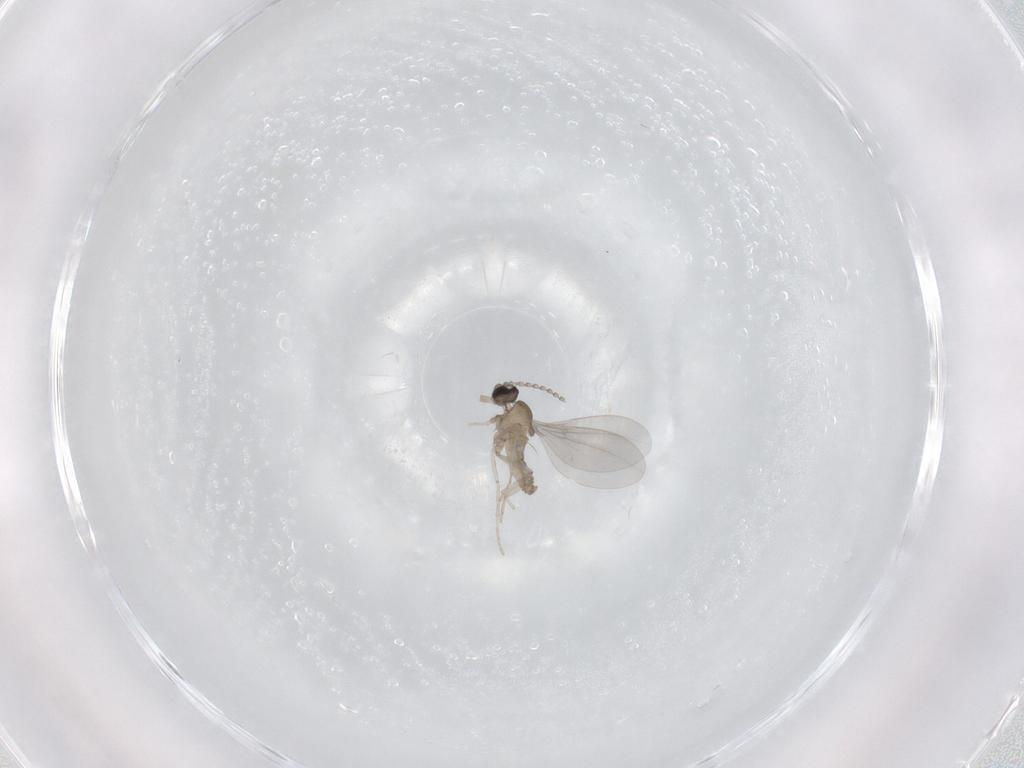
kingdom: Animalia
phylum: Arthropoda
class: Insecta
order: Diptera
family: Cecidomyiidae
